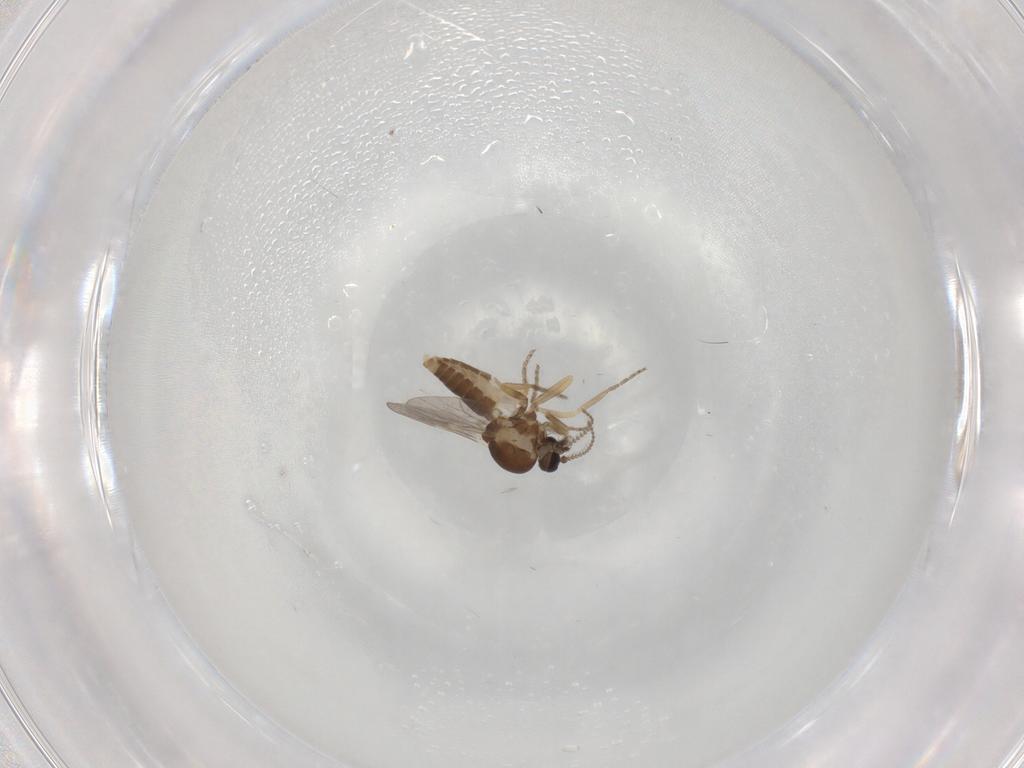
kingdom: Animalia
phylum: Arthropoda
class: Insecta
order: Diptera
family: Ceratopogonidae
